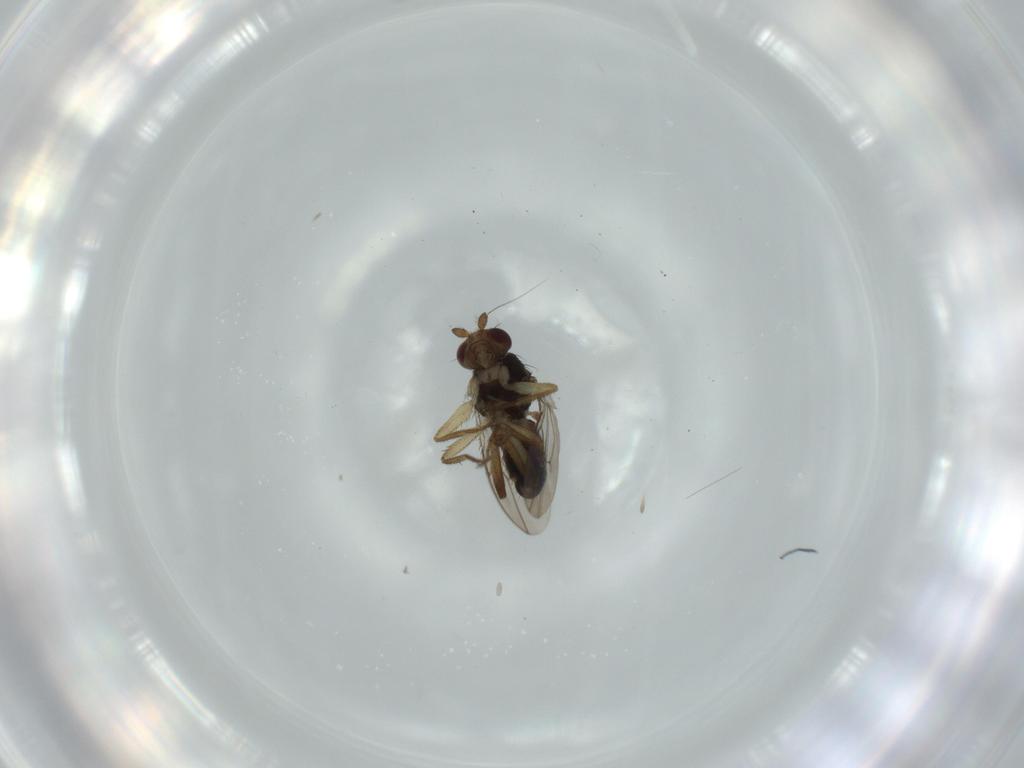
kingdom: Animalia
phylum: Arthropoda
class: Insecta
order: Diptera
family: Sphaeroceridae
